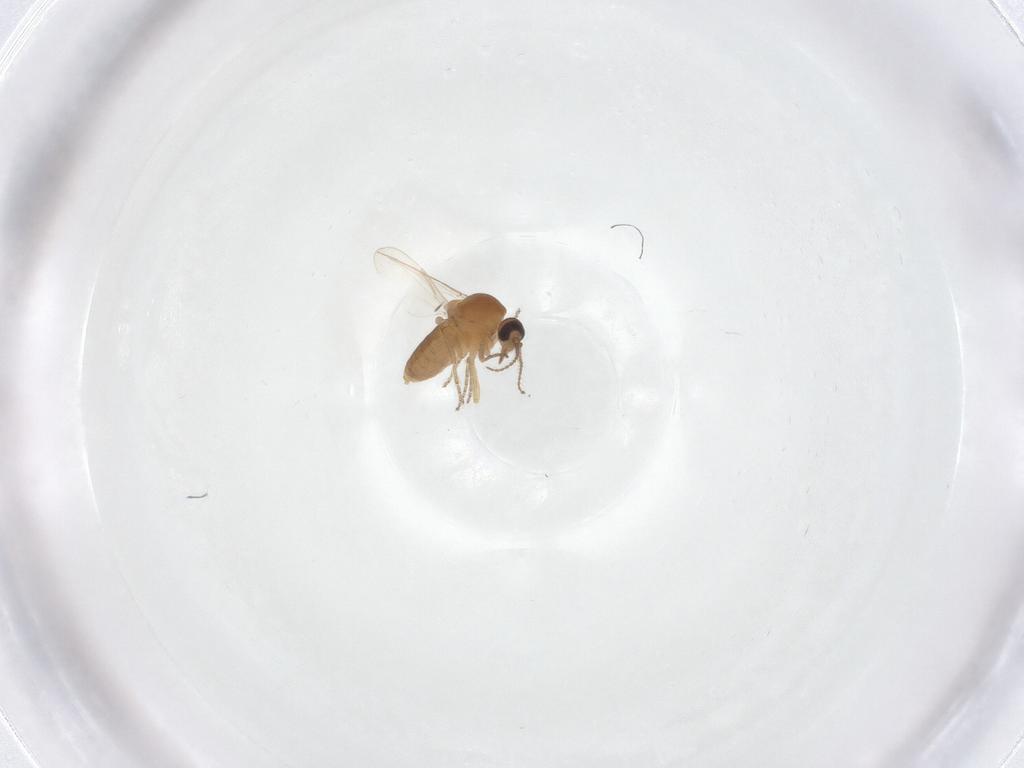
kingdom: Animalia
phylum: Arthropoda
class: Insecta
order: Diptera
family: Ceratopogonidae
